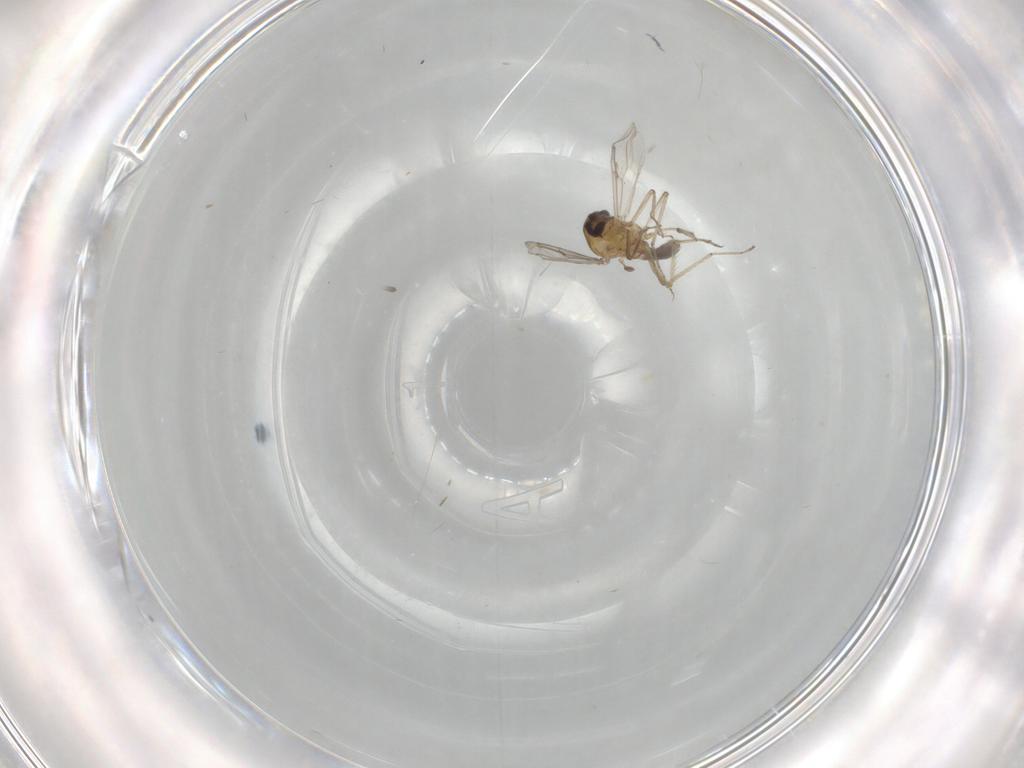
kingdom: Animalia
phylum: Arthropoda
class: Insecta
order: Diptera
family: Ceratopogonidae
